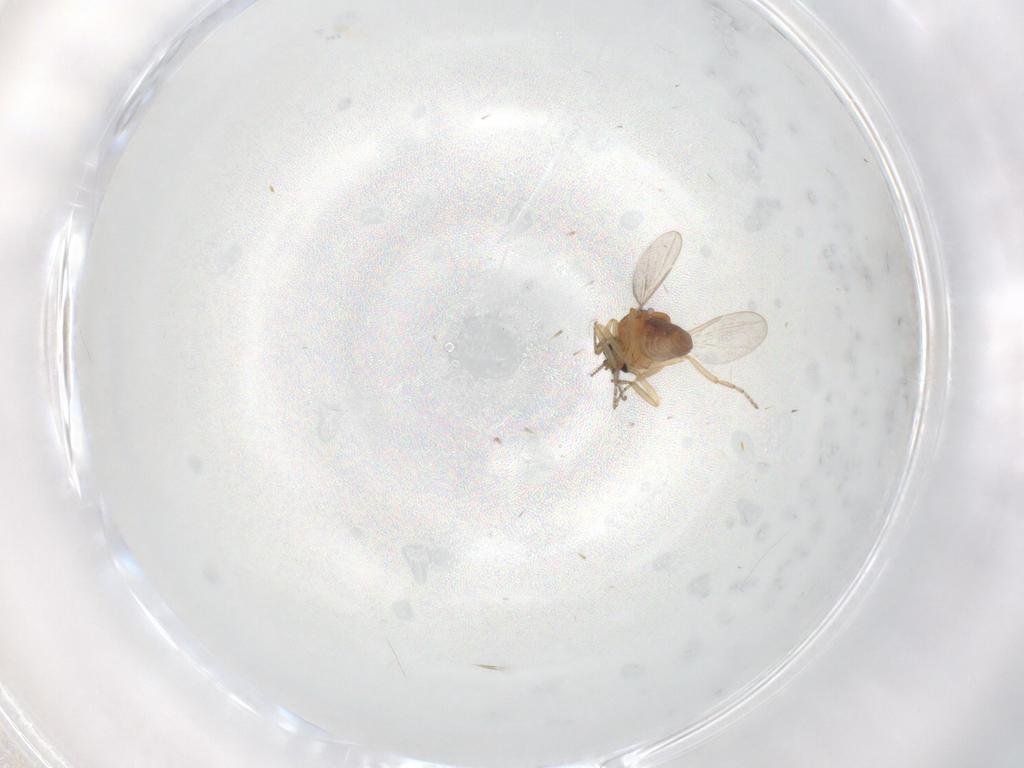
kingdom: Animalia
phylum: Arthropoda
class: Insecta
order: Diptera
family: Ceratopogonidae
